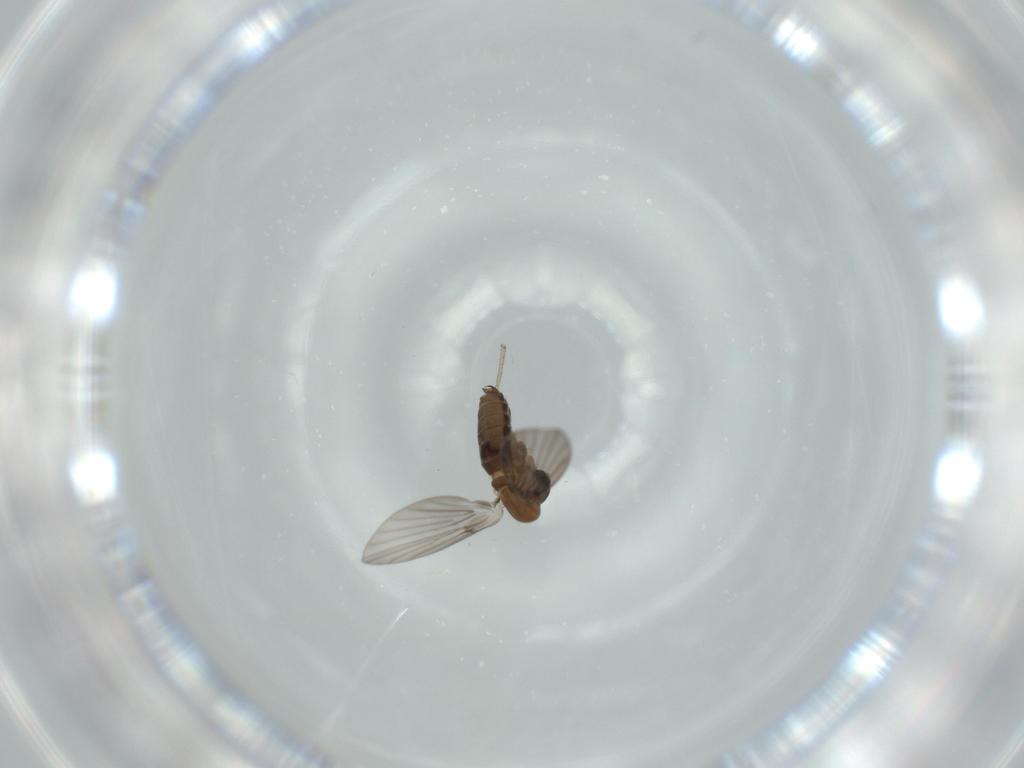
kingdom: Animalia
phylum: Arthropoda
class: Insecta
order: Diptera
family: Psychodidae
